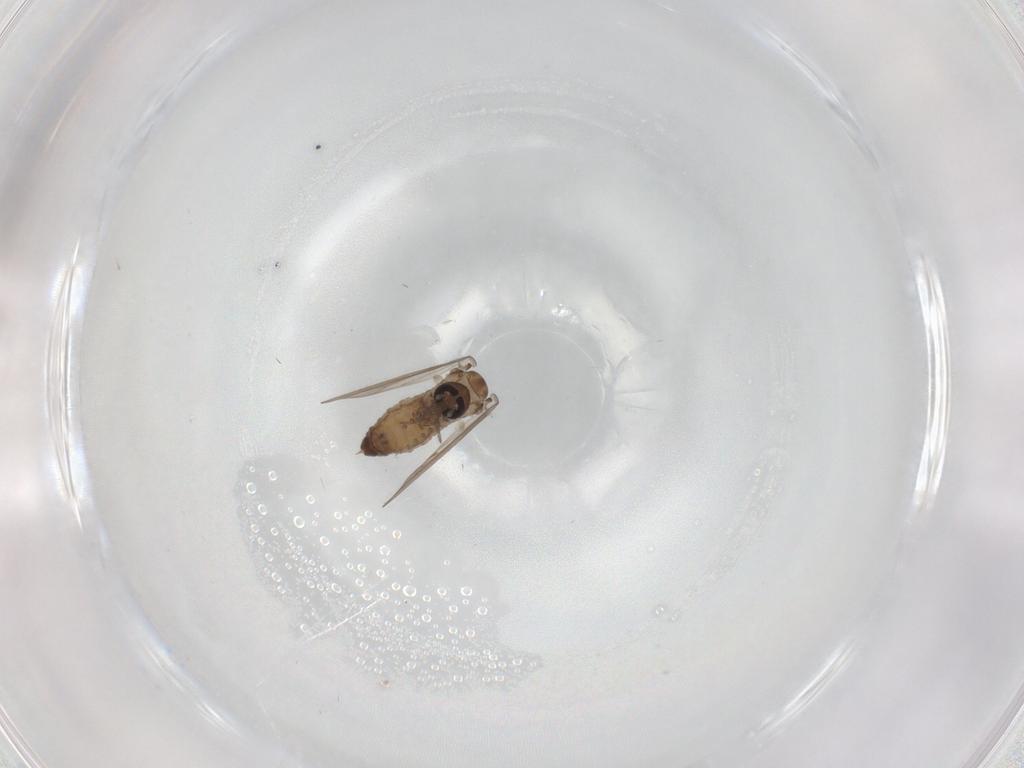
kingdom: Animalia
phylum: Arthropoda
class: Insecta
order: Diptera
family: Psychodidae
